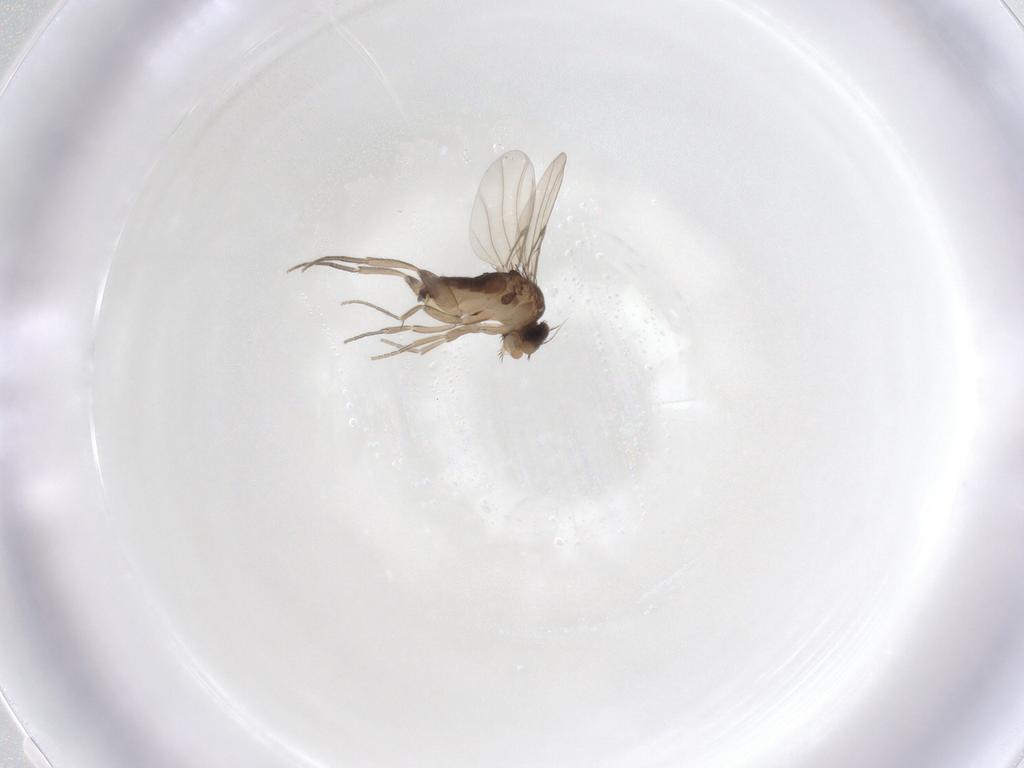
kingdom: Animalia
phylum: Arthropoda
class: Insecta
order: Diptera
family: Phoridae
